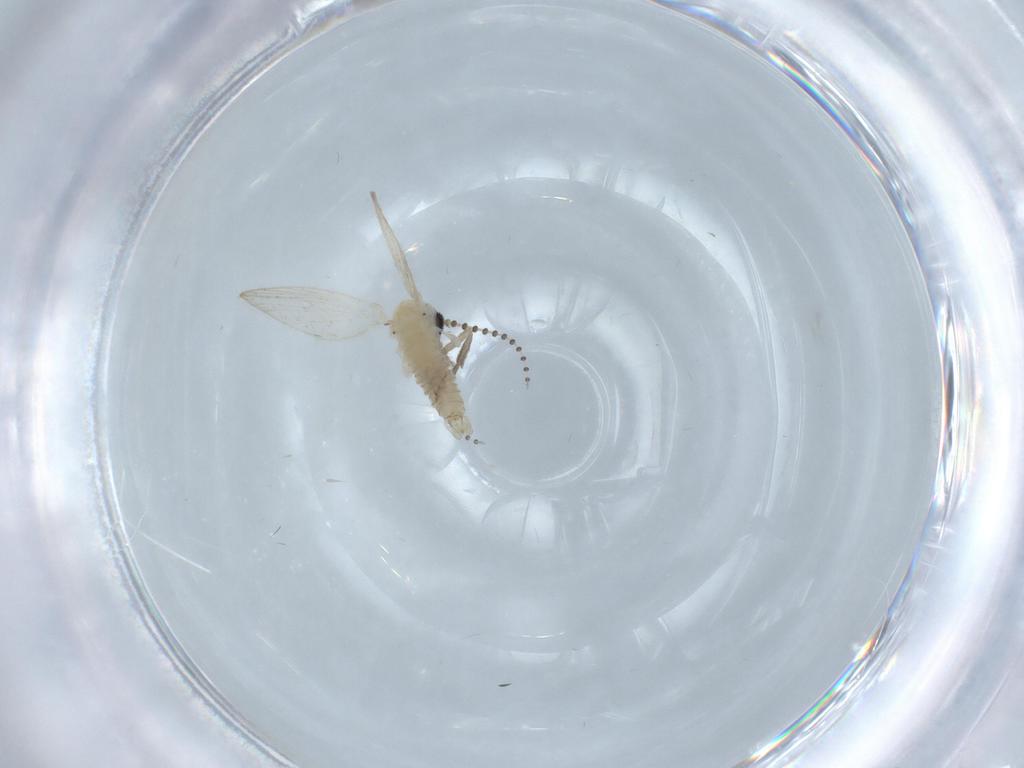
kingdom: Animalia
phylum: Arthropoda
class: Insecta
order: Diptera
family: Psychodidae
